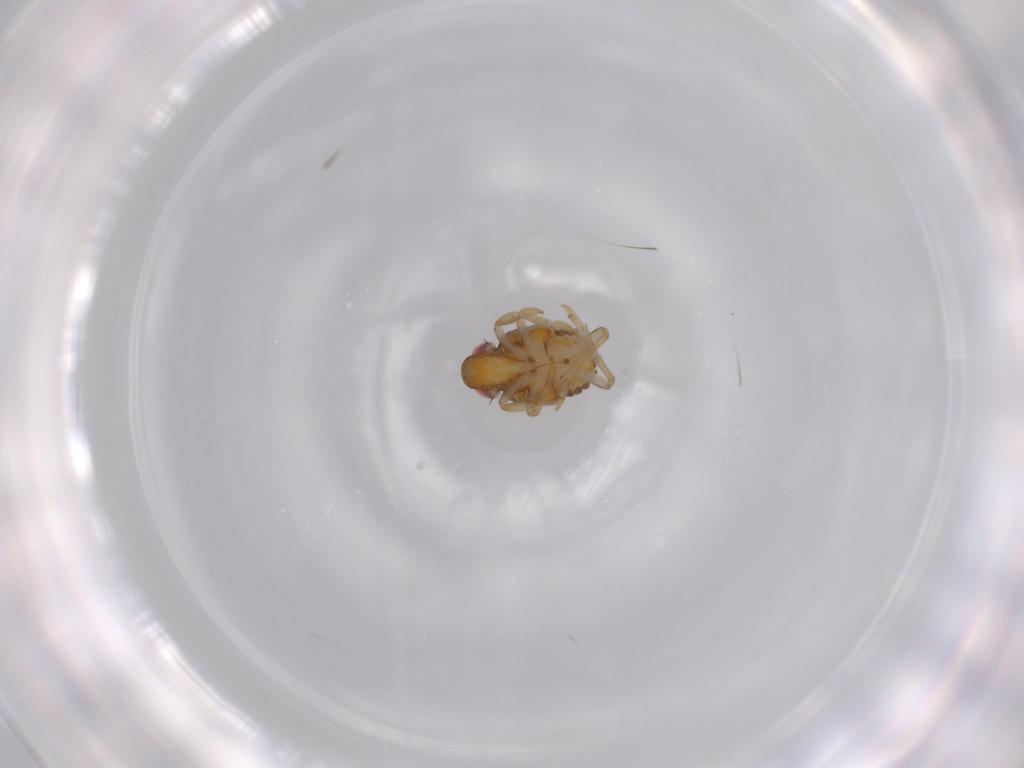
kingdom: Animalia
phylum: Arthropoda
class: Insecta
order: Hemiptera
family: Issidae
